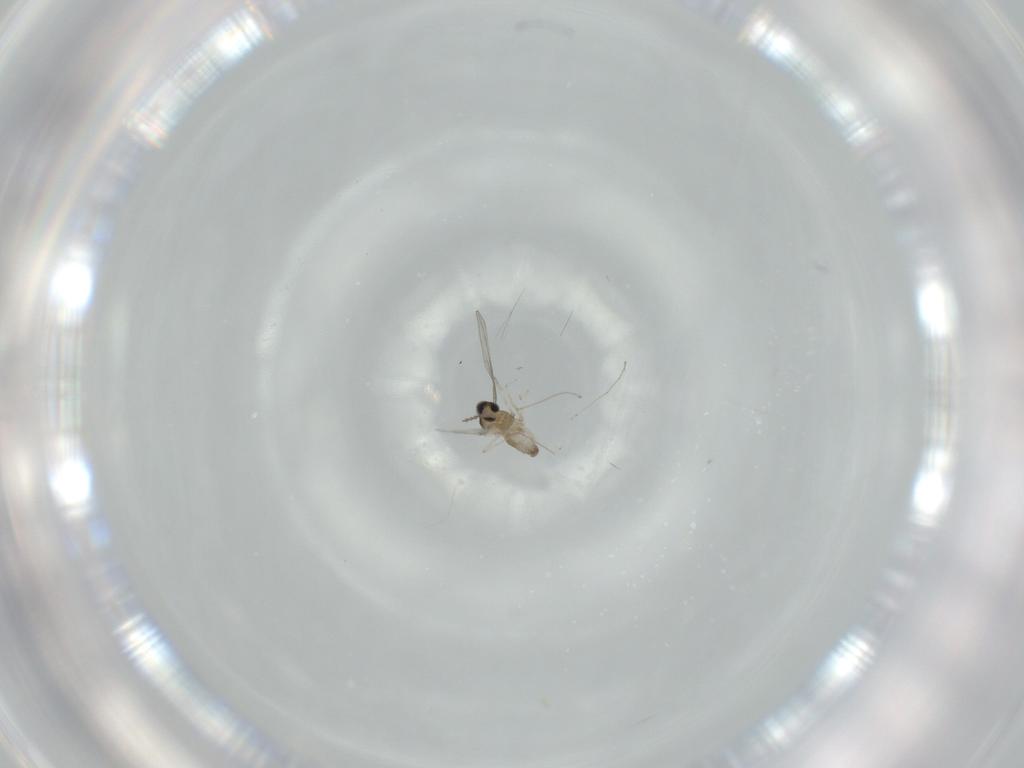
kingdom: Animalia
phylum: Arthropoda
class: Insecta
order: Diptera
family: Cecidomyiidae
